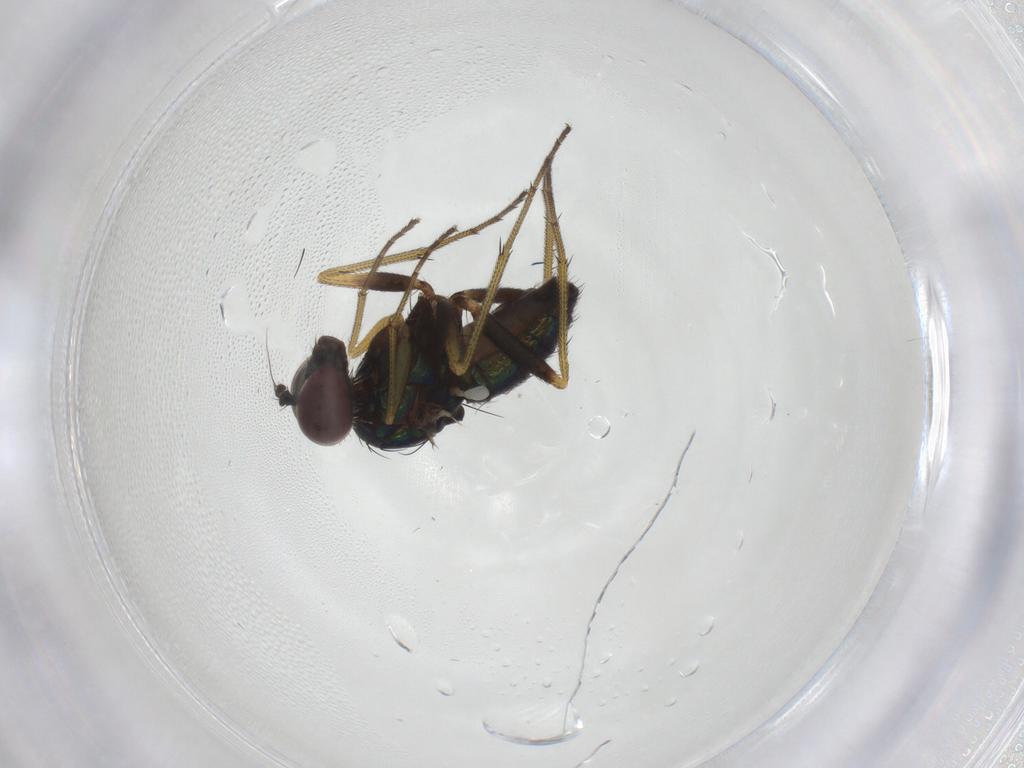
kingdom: Animalia
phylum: Arthropoda
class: Insecta
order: Diptera
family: Dolichopodidae
